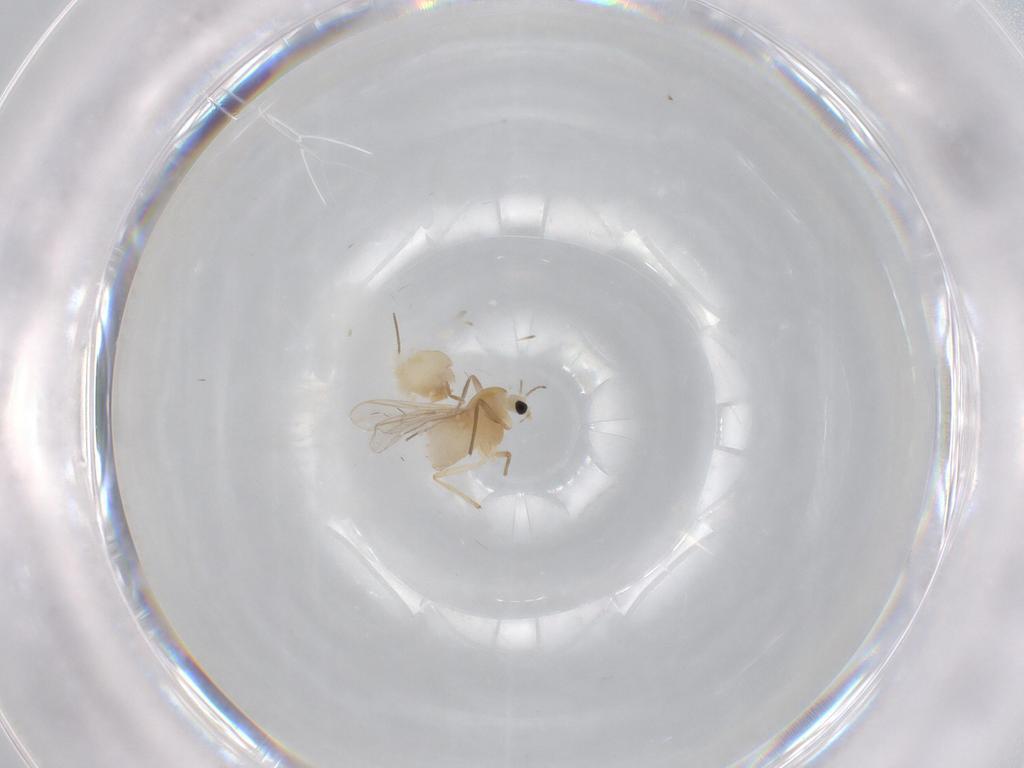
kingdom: Animalia
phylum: Arthropoda
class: Insecta
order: Diptera
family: Chironomidae
